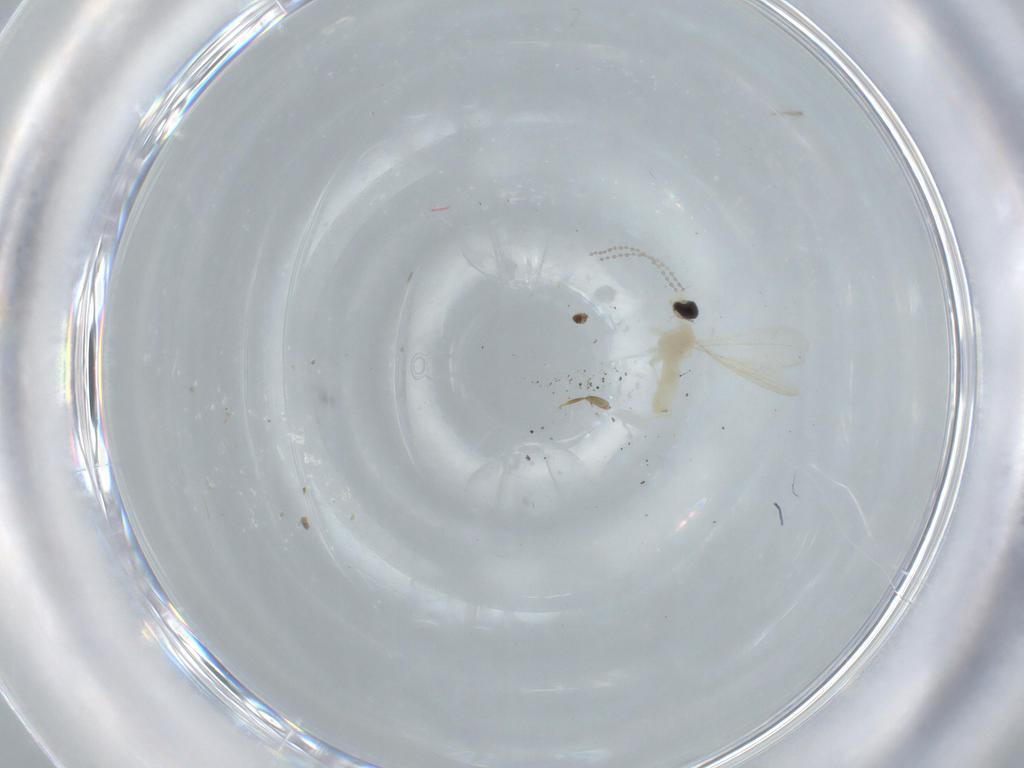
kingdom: Animalia
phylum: Arthropoda
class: Insecta
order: Diptera
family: Cecidomyiidae
